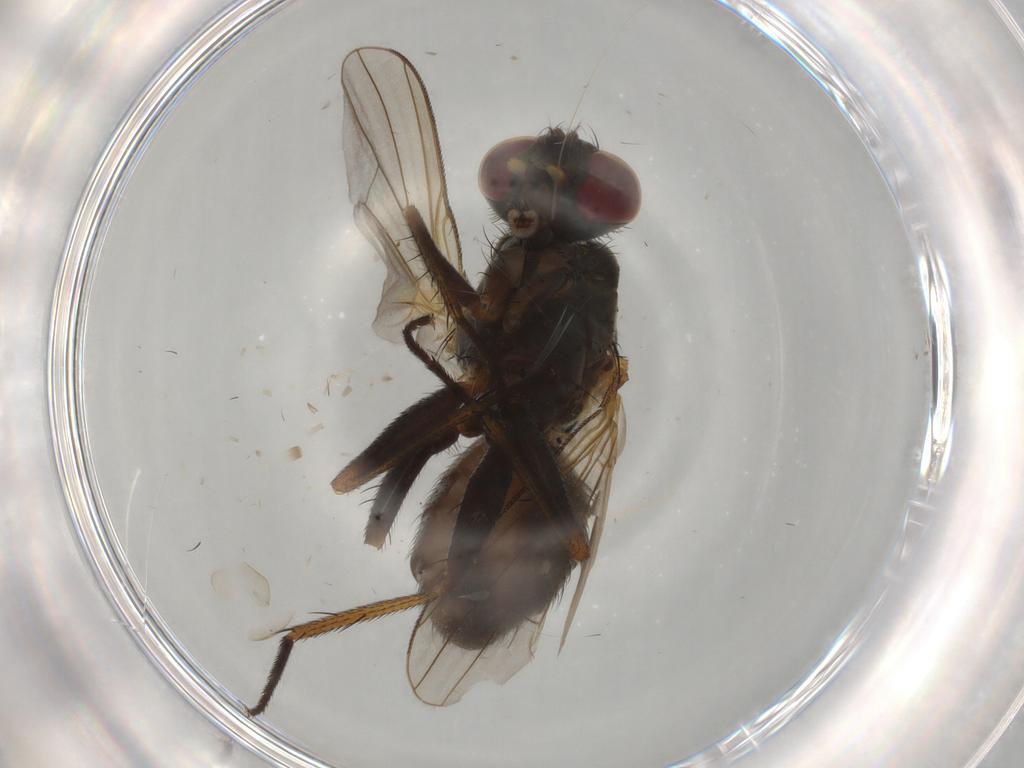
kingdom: Animalia
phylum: Arthropoda
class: Insecta
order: Diptera
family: Muscidae
